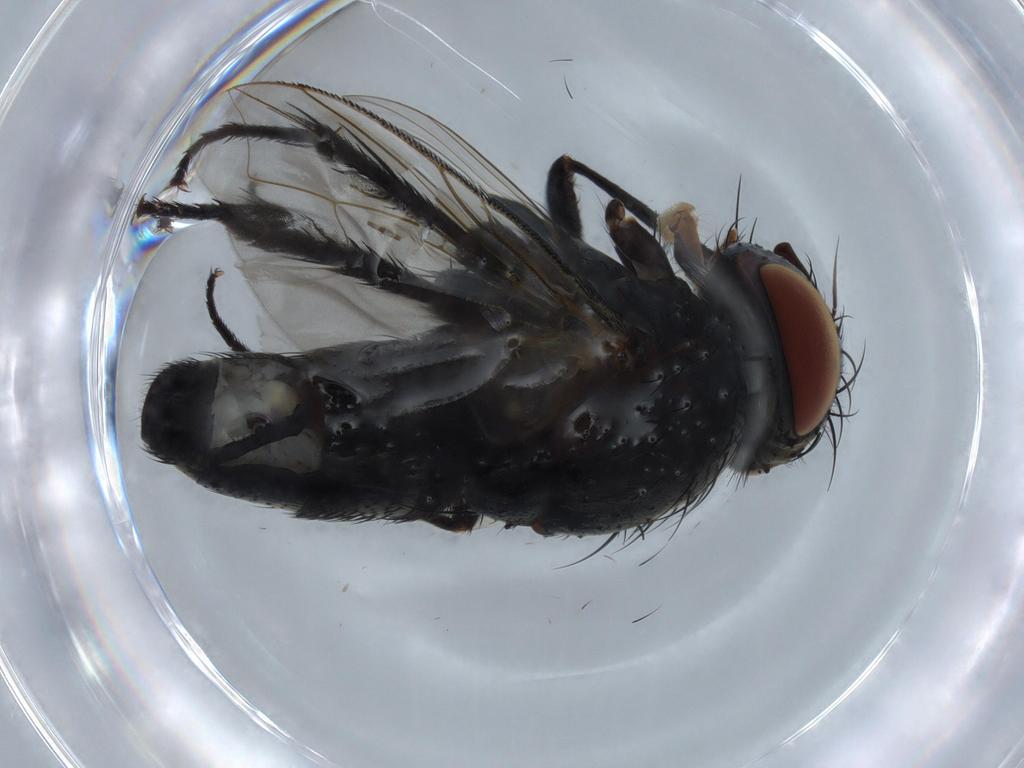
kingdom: Animalia
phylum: Arthropoda
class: Insecta
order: Diptera
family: Tachinidae
